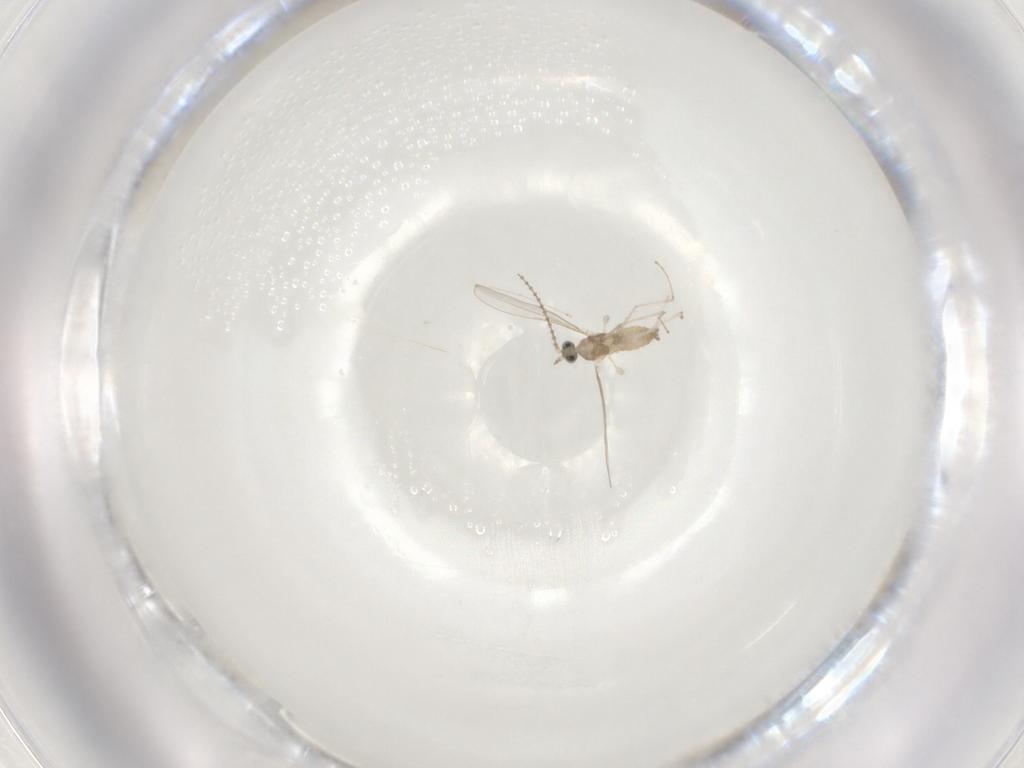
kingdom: Animalia
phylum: Arthropoda
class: Insecta
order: Diptera
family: Cecidomyiidae
